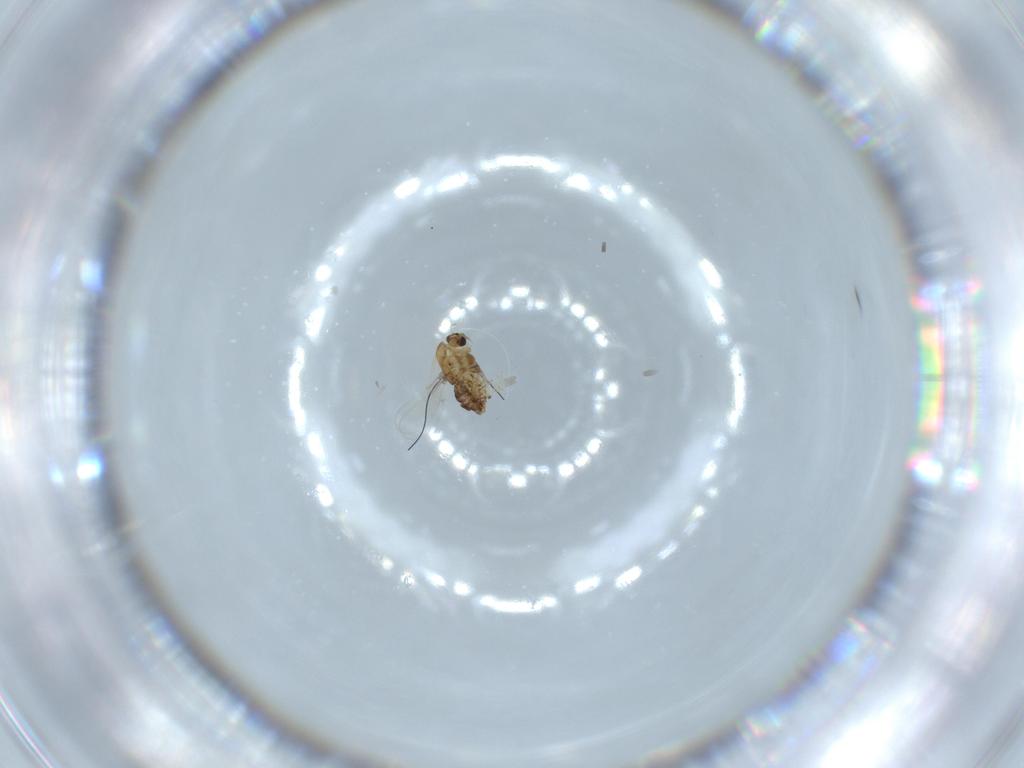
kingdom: Animalia
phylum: Arthropoda
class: Insecta
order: Diptera
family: Chironomidae
